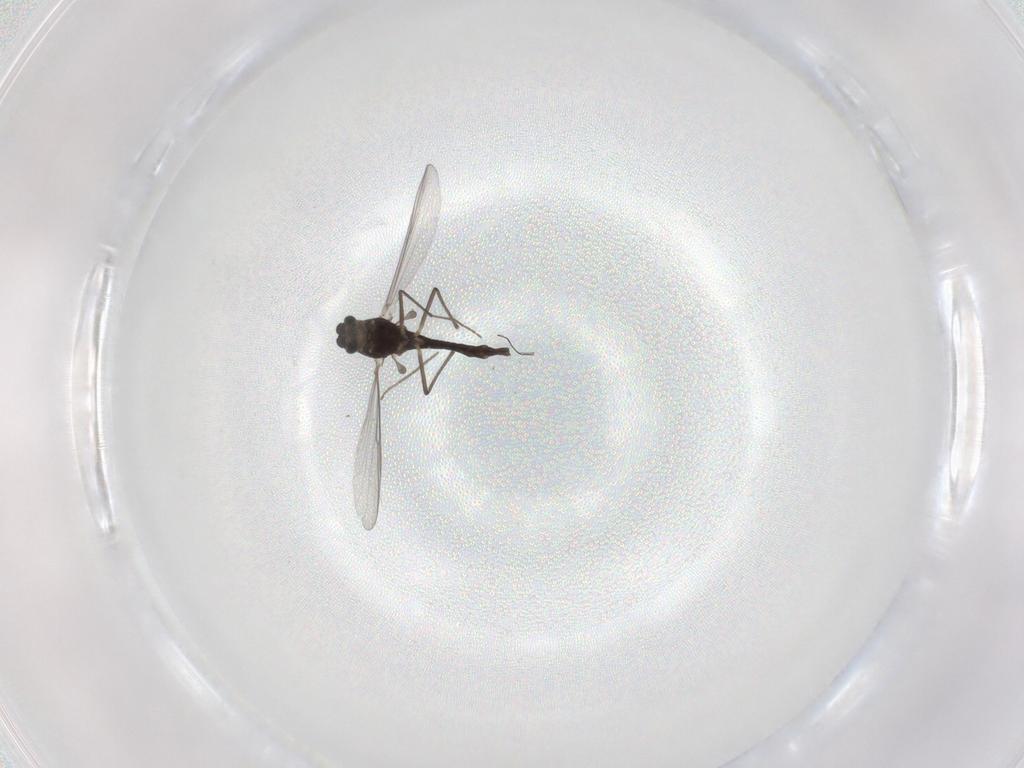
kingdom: Animalia
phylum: Arthropoda
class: Insecta
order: Diptera
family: Chironomidae
